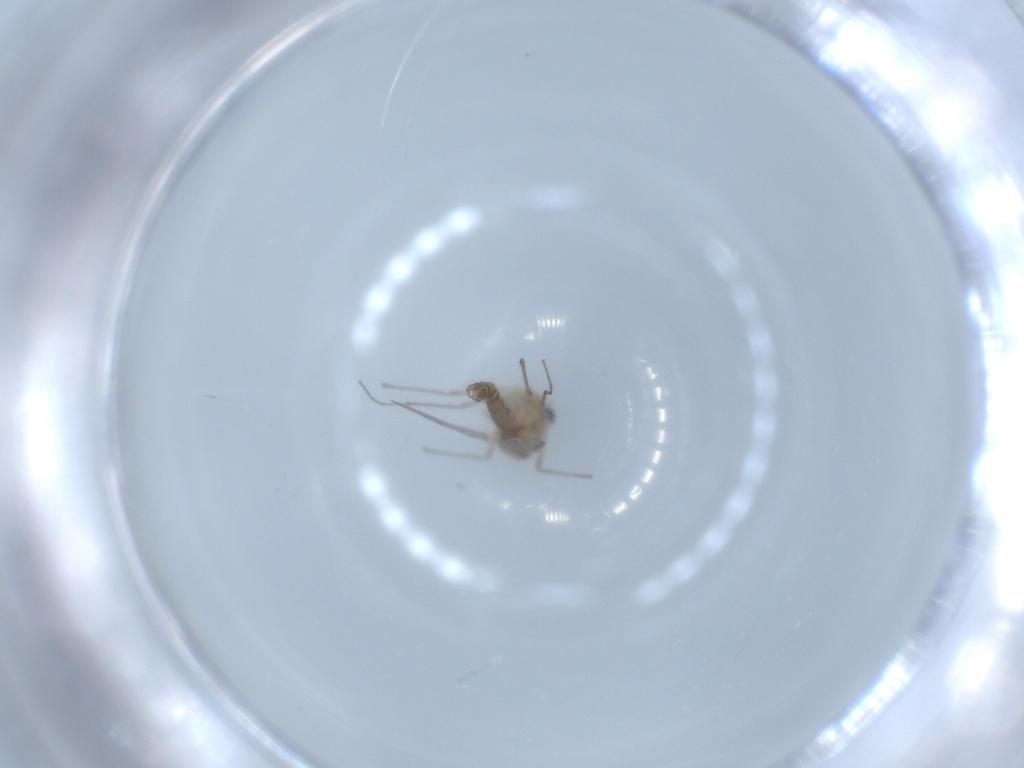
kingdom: Animalia
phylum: Arthropoda
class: Insecta
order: Diptera
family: Chironomidae
